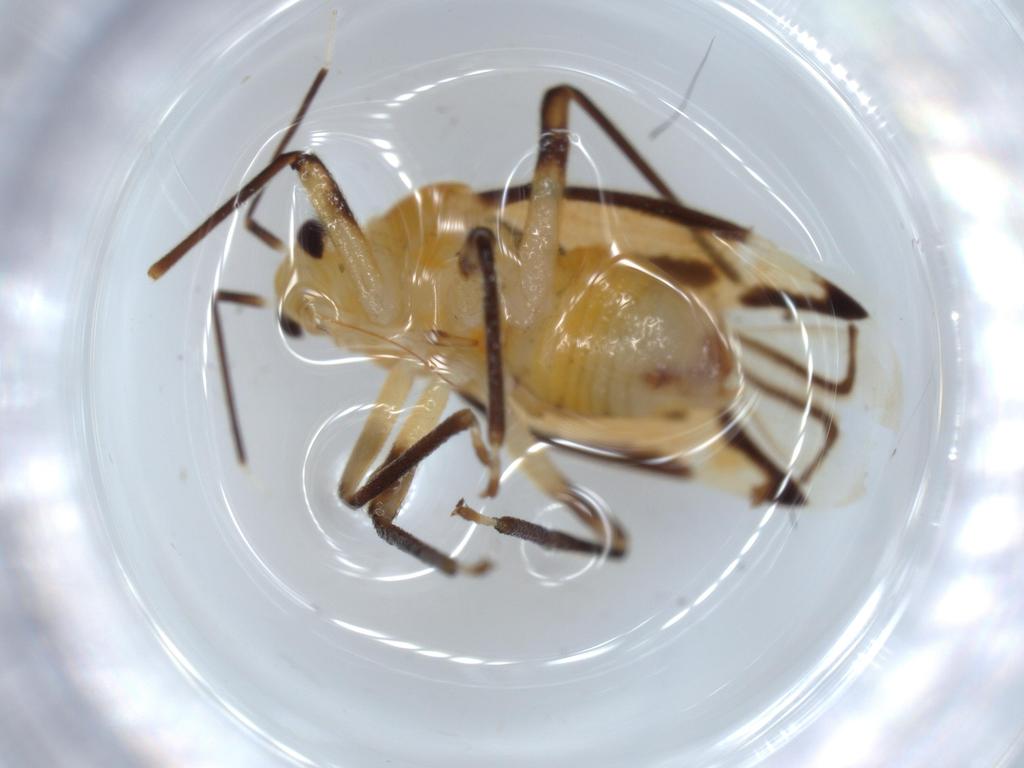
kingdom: Animalia
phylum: Arthropoda
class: Insecta
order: Hemiptera
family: Miridae
